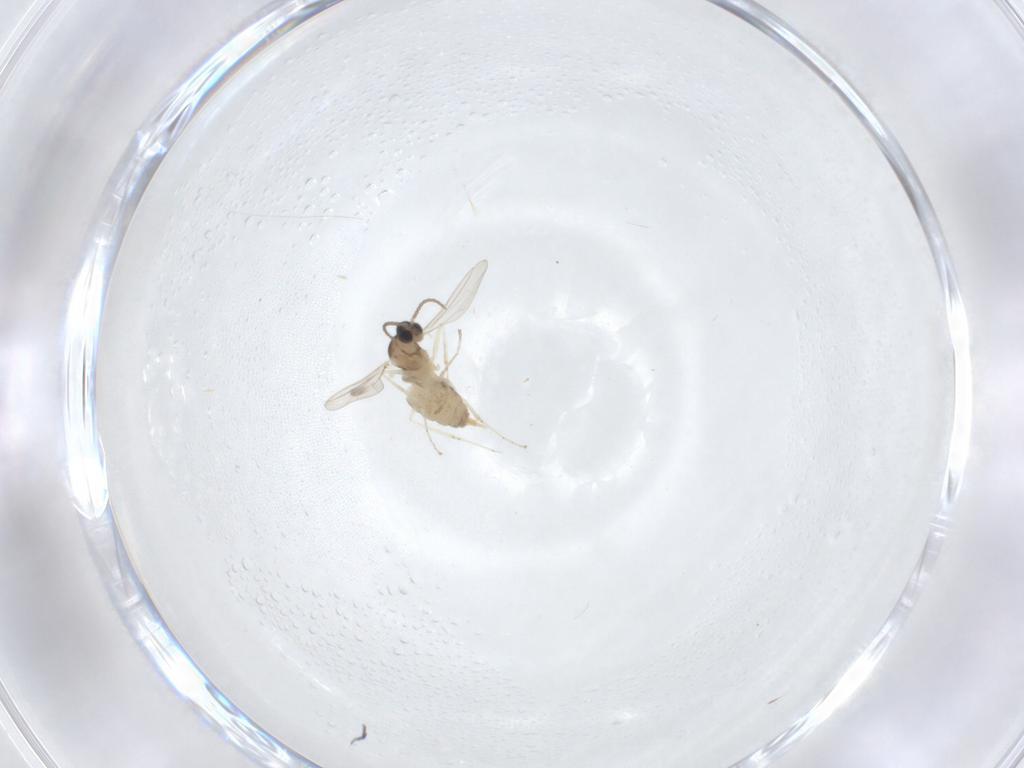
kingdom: Animalia
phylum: Arthropoda
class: Insecta
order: Diptera
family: Cecidomyiidae
